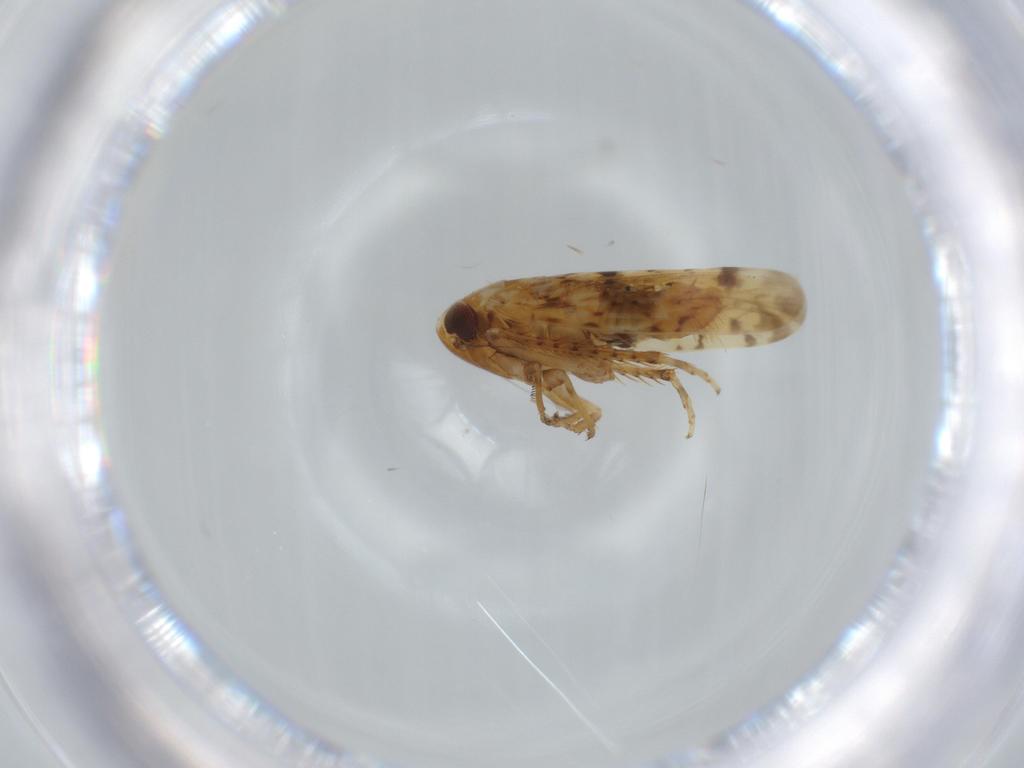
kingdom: Animalia
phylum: Arthropoda
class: Insecta
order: Hemiptera
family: Cicadellidae
